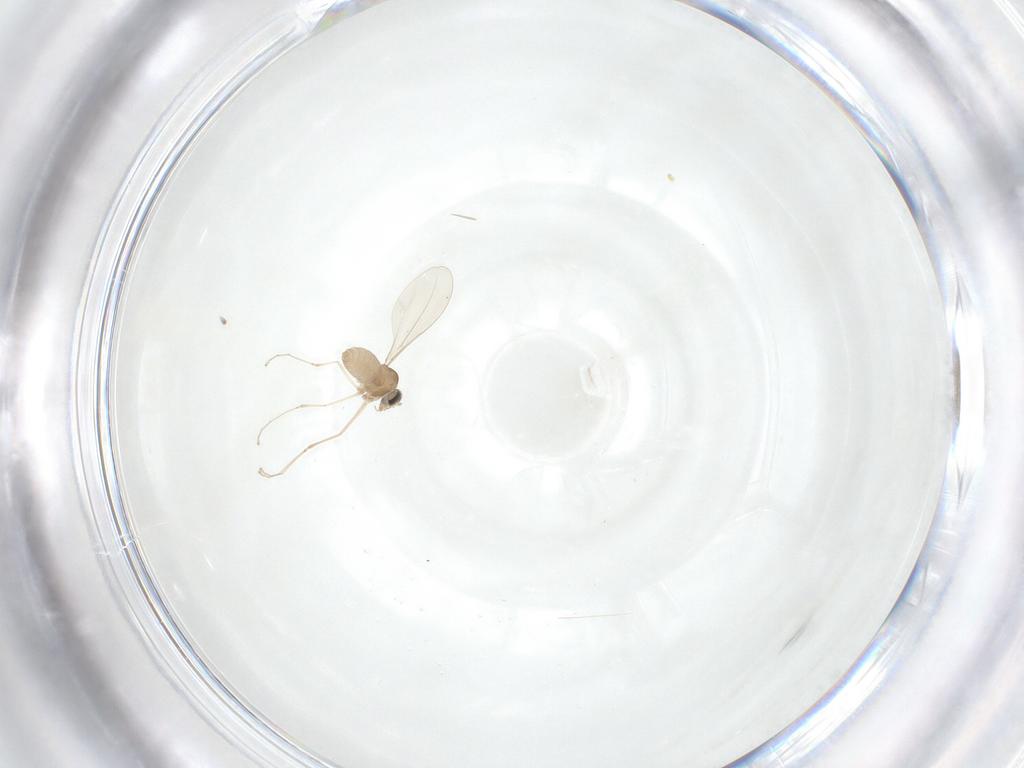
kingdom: Animalia
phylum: Arthropoda
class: Insecta
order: Diptera
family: Cecidomyiidae
